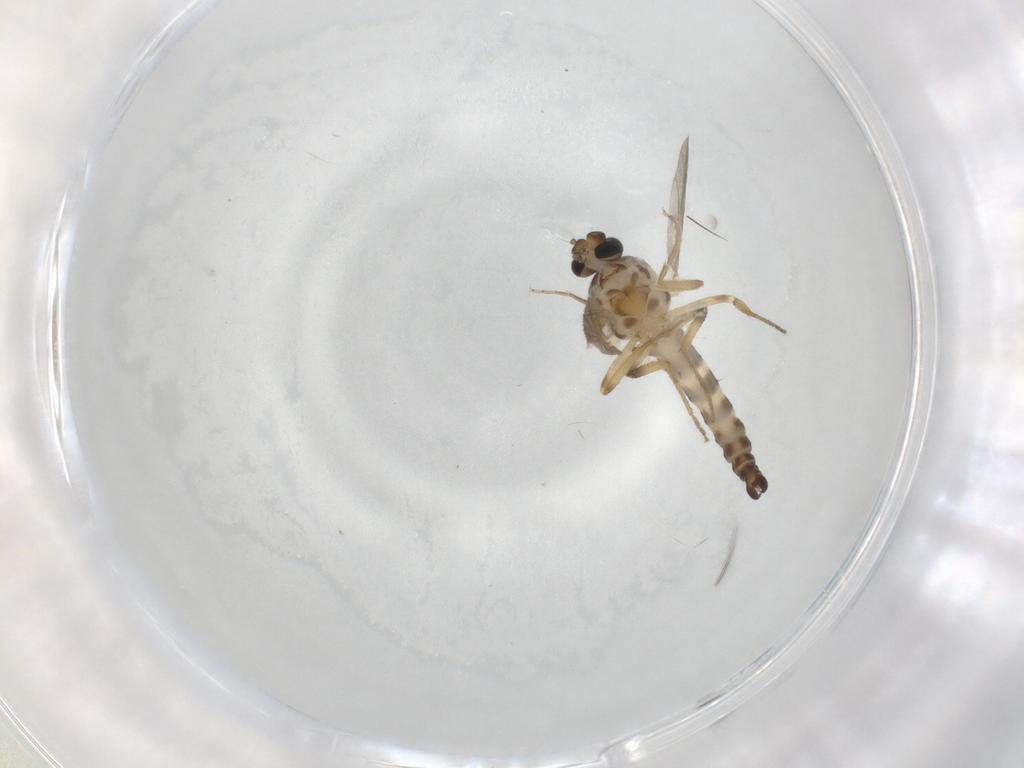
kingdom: Animalia
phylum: Arthropoda
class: Insecta
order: Diptera
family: Ceratopogonidae
